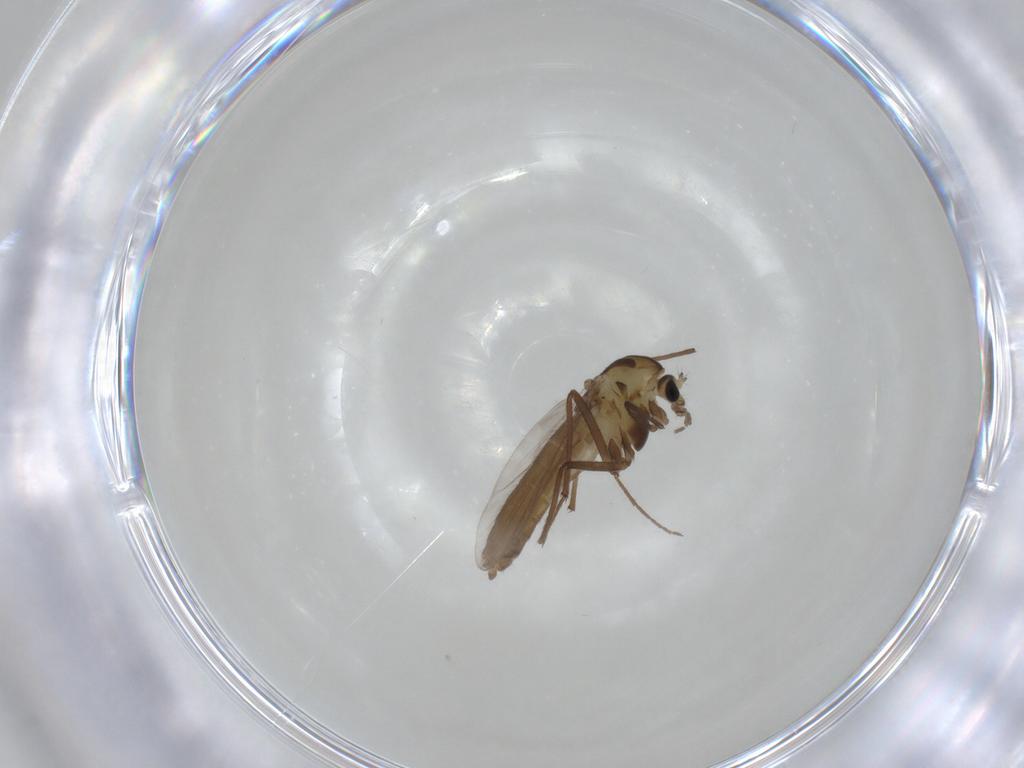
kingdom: Animalia
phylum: Arthropoda
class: Insecta
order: Diptera
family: Chironomidae
